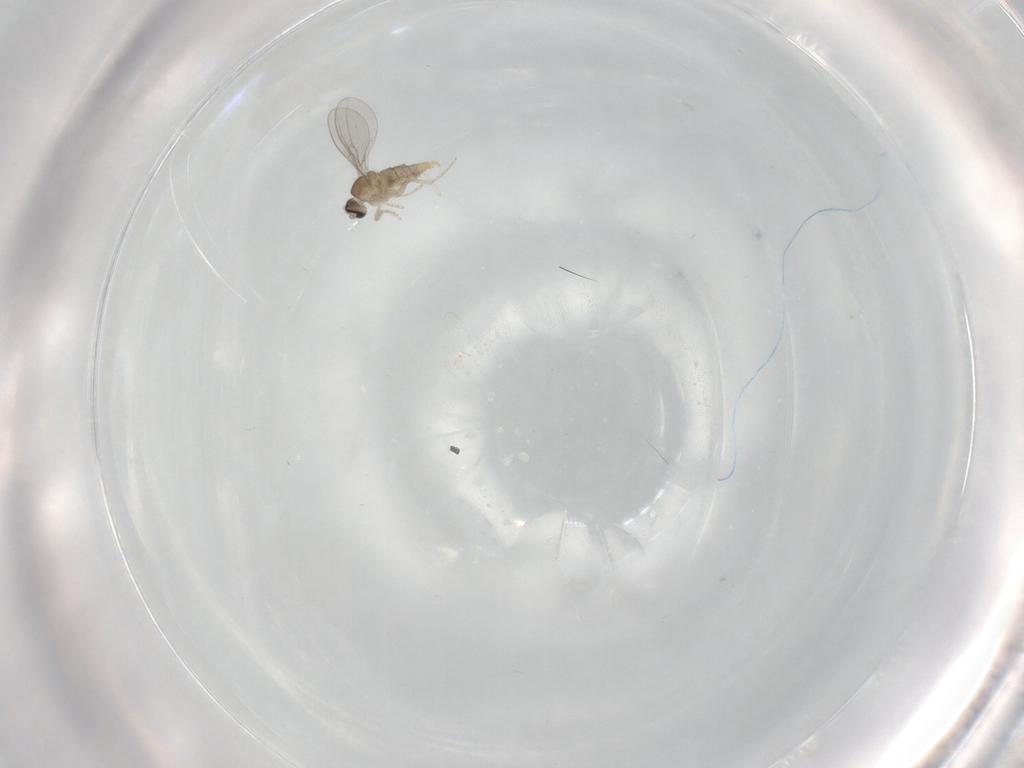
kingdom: Animalia
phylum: Arthropoda
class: Insecta
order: Diptera
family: Cecidomyiidae
